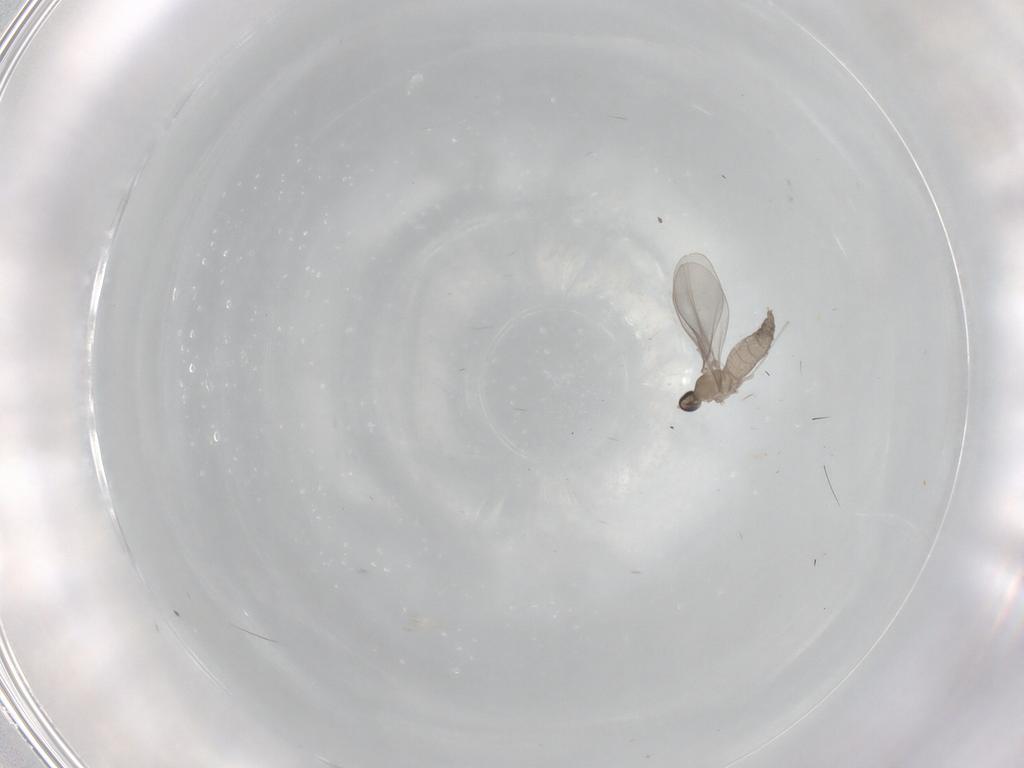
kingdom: Animalia
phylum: Arthropoda
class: Insecta
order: Diptera
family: Cecidomyiidae
